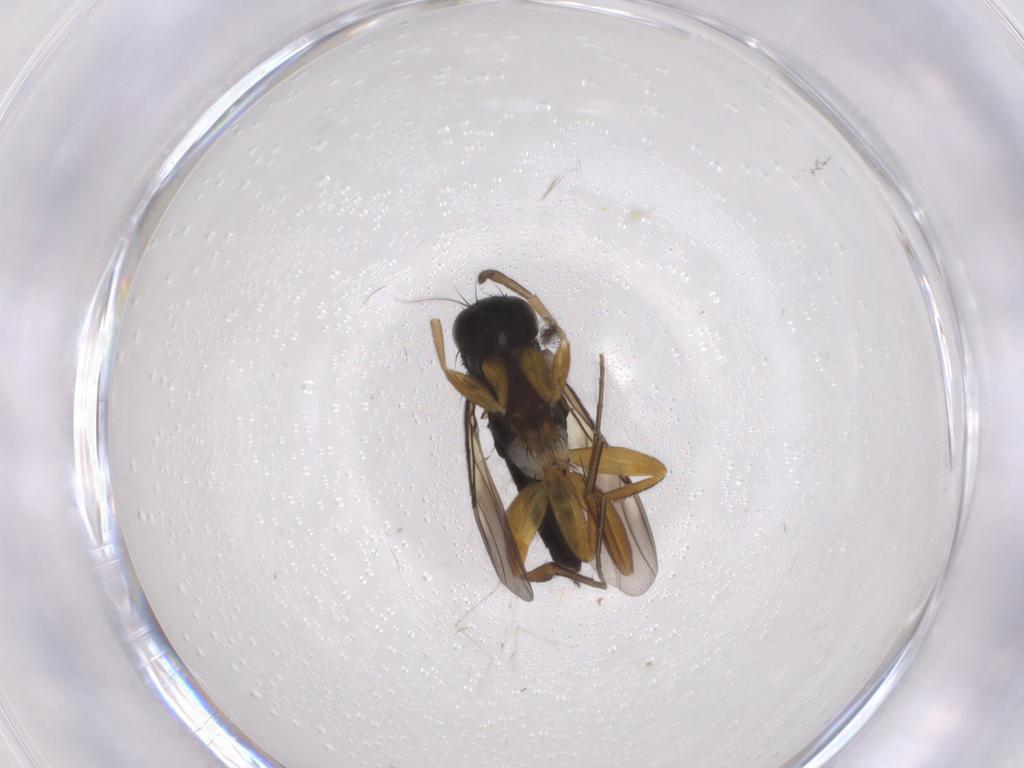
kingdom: Animalia
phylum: Arthropoda
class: Insecta
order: Diptera
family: Phoridae
